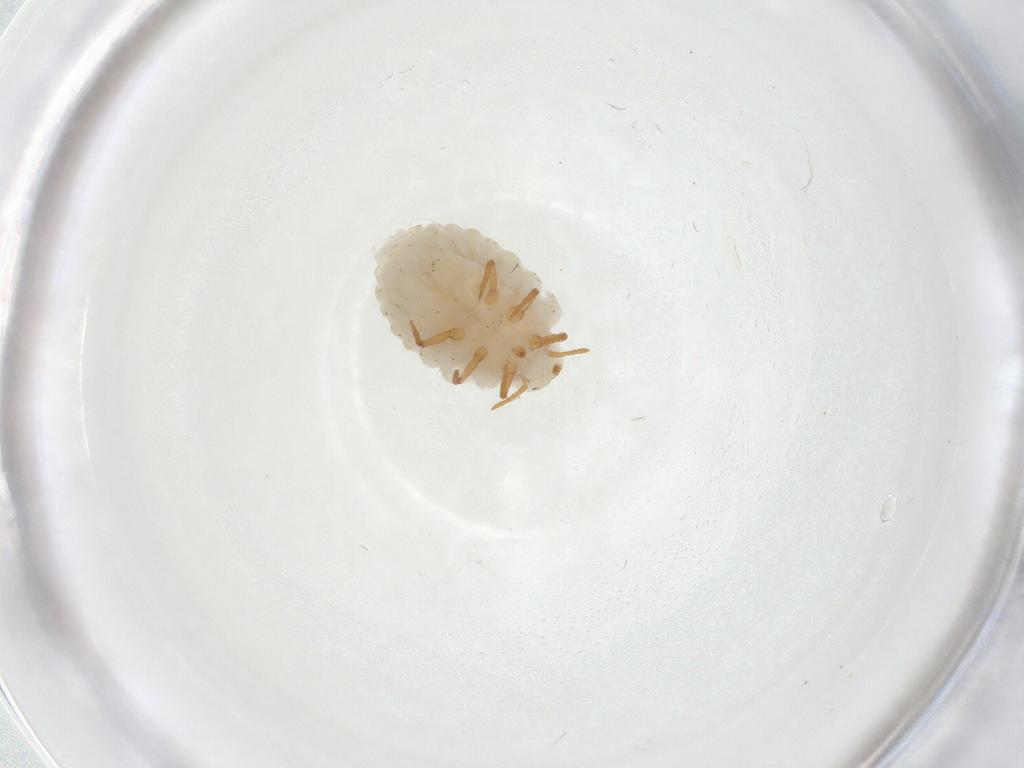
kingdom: Animalia
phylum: Arthropoda
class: Insecta
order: Hemiptera
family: Ortheziidae
